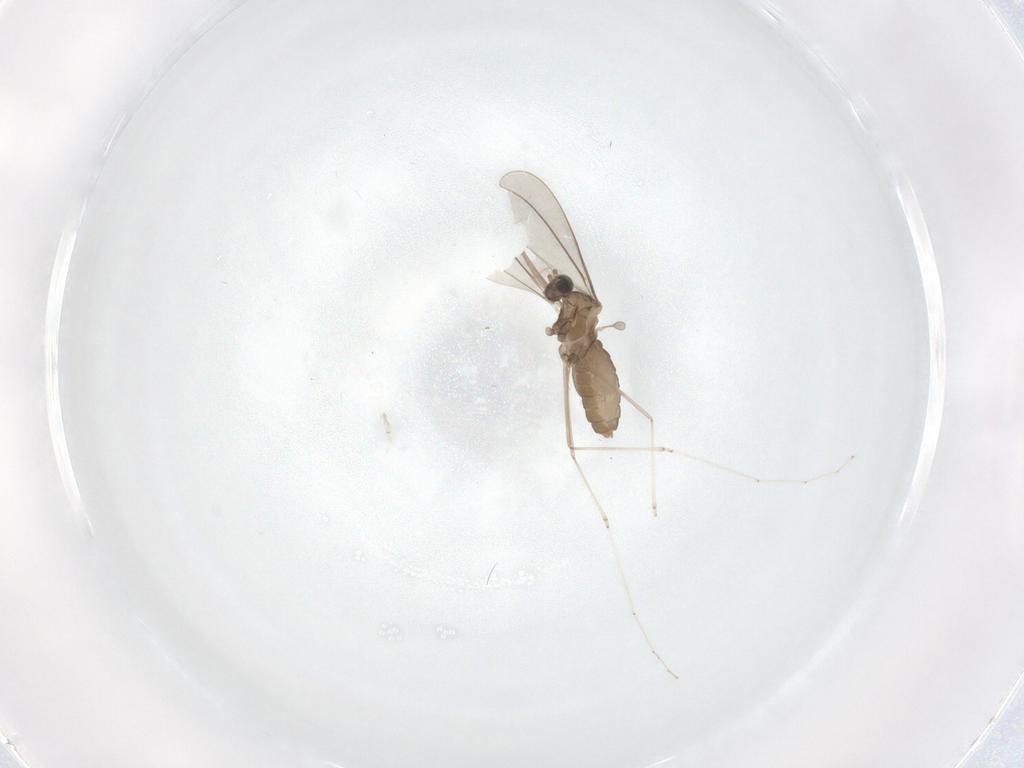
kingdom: Animalia
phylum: Arthropoda
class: Insecta
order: Diptera
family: Cecidomyiidae
